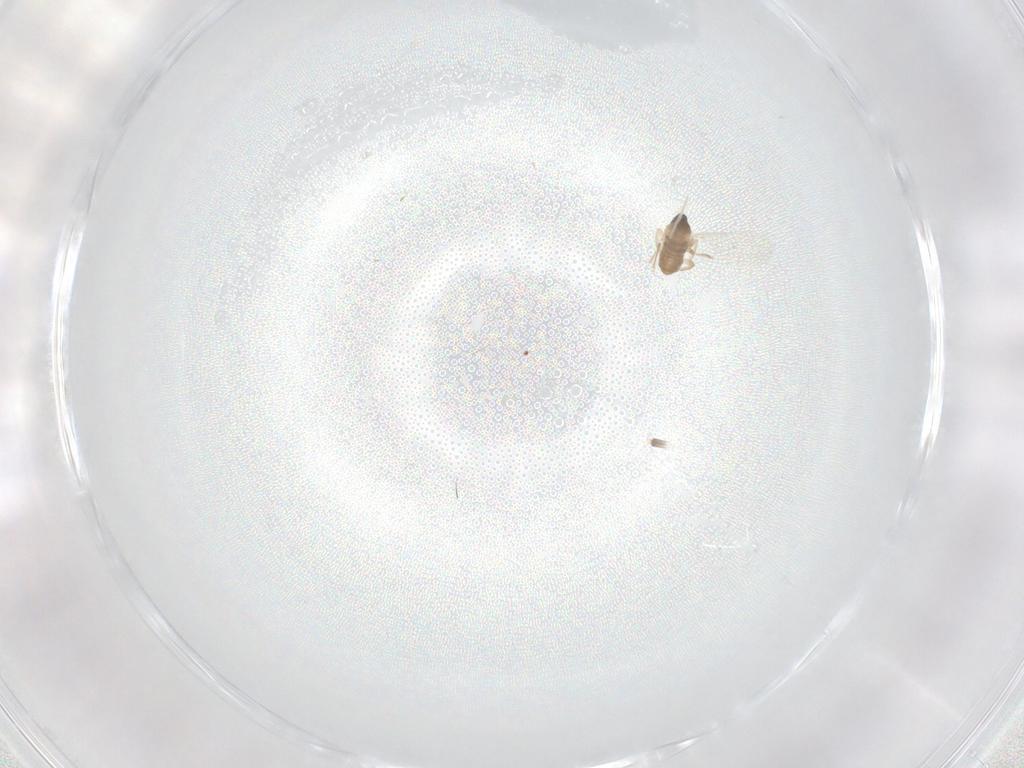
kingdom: Animalia
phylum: Arthropoda
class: Insecta
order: Diptera
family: Cecidomyiidae
